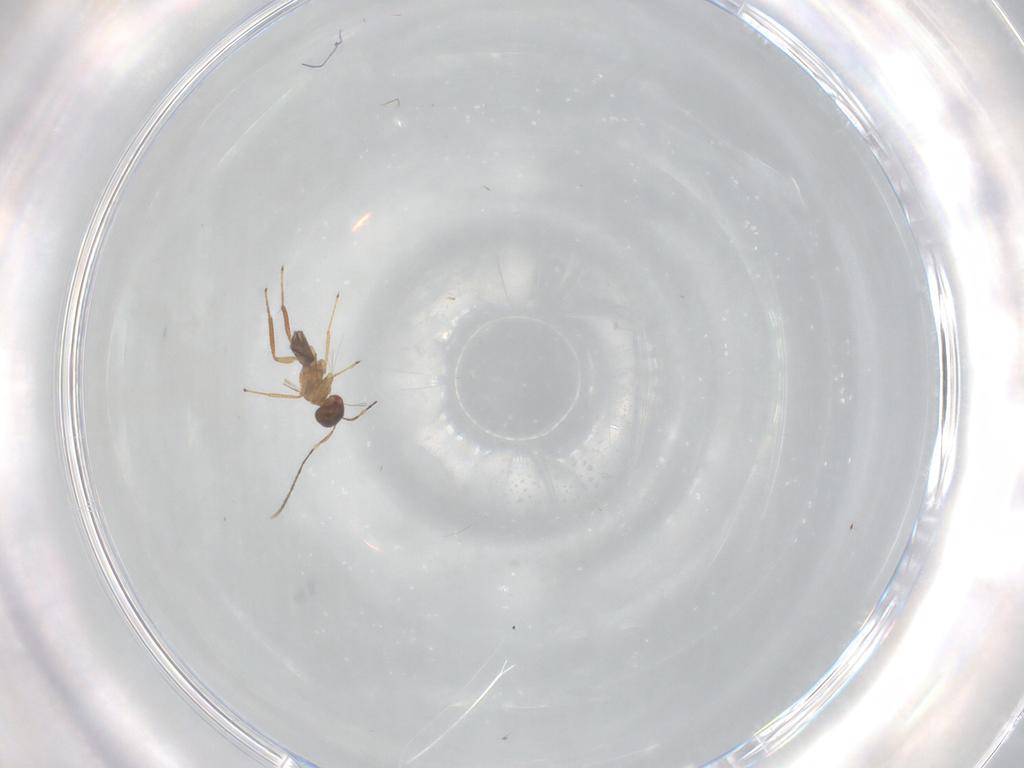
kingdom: Animalia
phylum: Arthropoda
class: Insecta
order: Hymenoptera
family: Mymaridae
